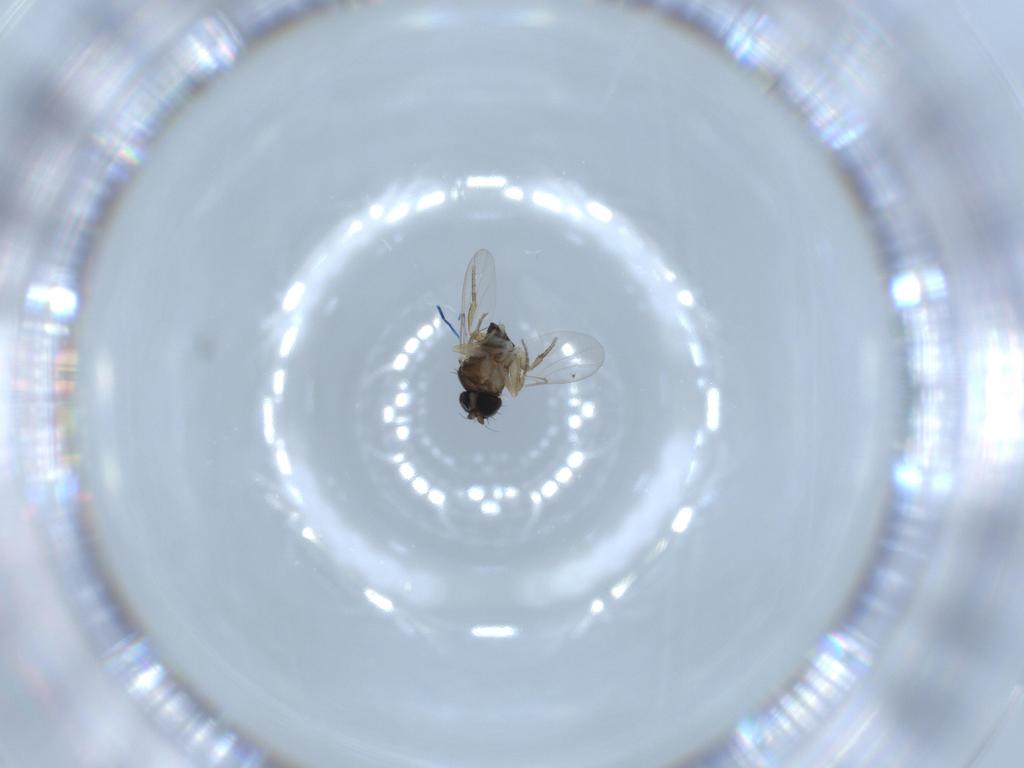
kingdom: Animalia
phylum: Arthropoda
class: Insecta
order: Diptera
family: Phoridae
